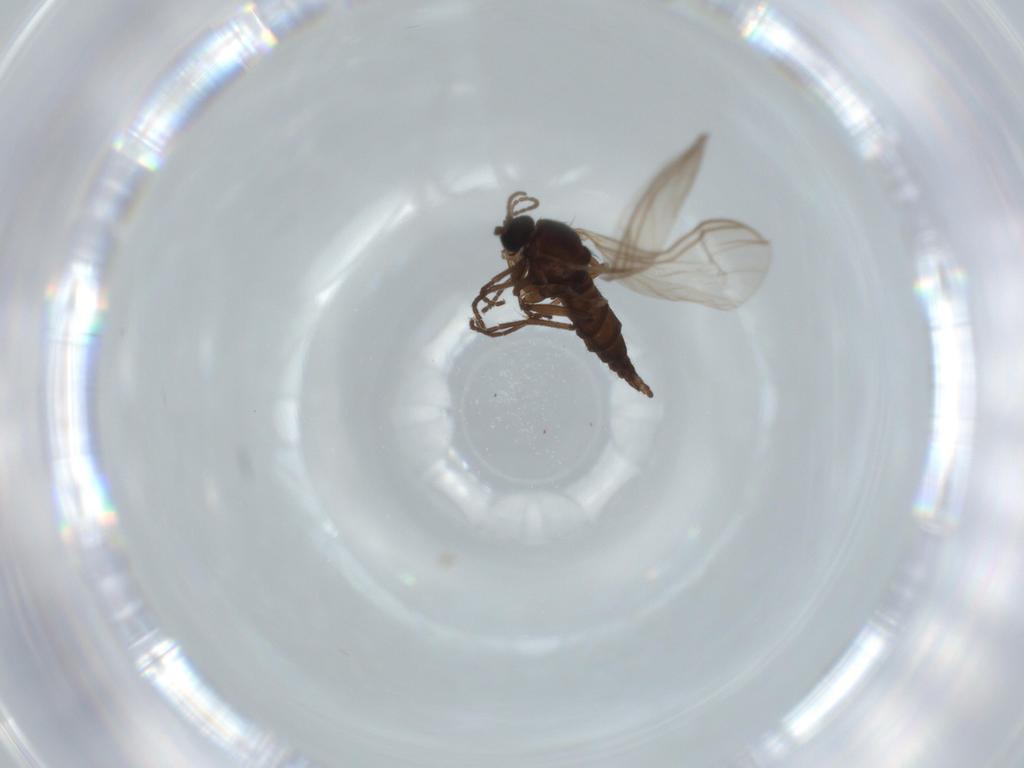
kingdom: Animalia
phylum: Arthropoda
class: Insecta
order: Diptera
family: Sciaridae
